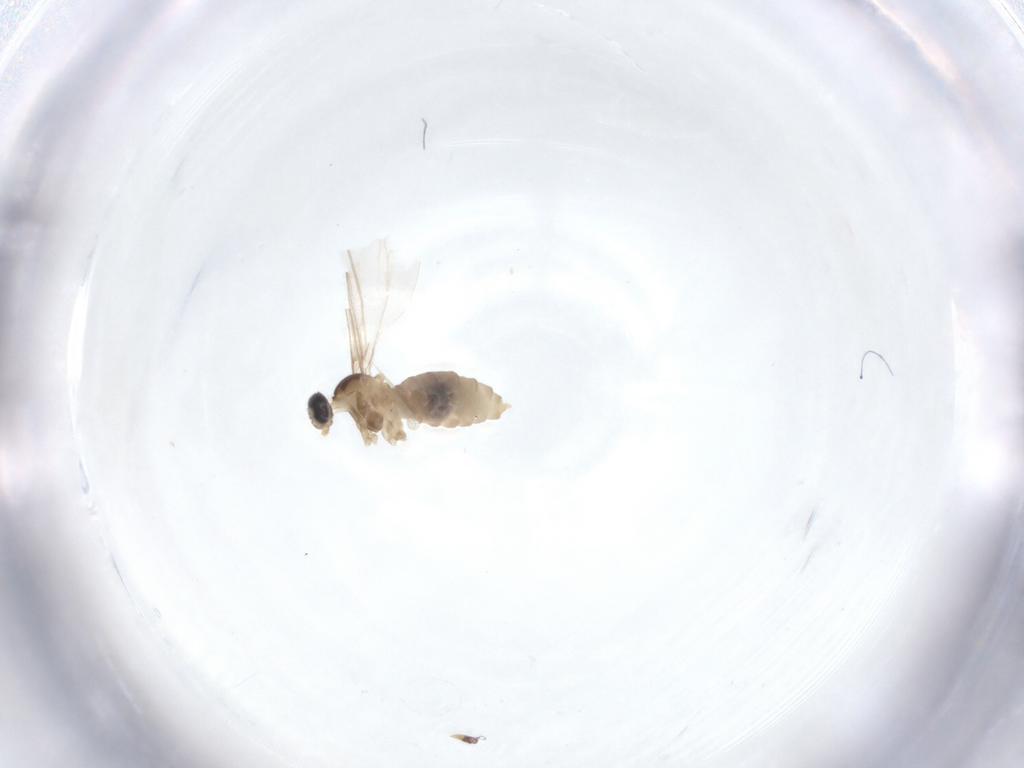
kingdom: Animalia
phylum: Arthropoda
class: Insecta
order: Diptera
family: Cecidomyiidae
